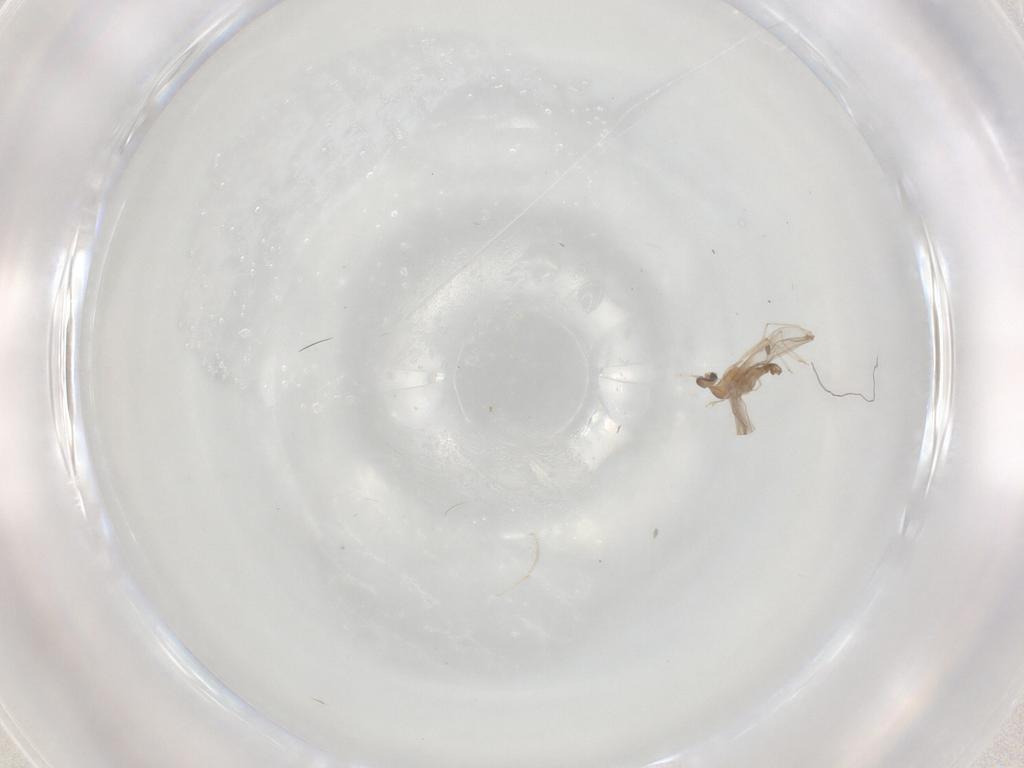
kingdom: Animalia
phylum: Arthropoda
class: Insecta
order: Diptera
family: Cecidomyiidae
